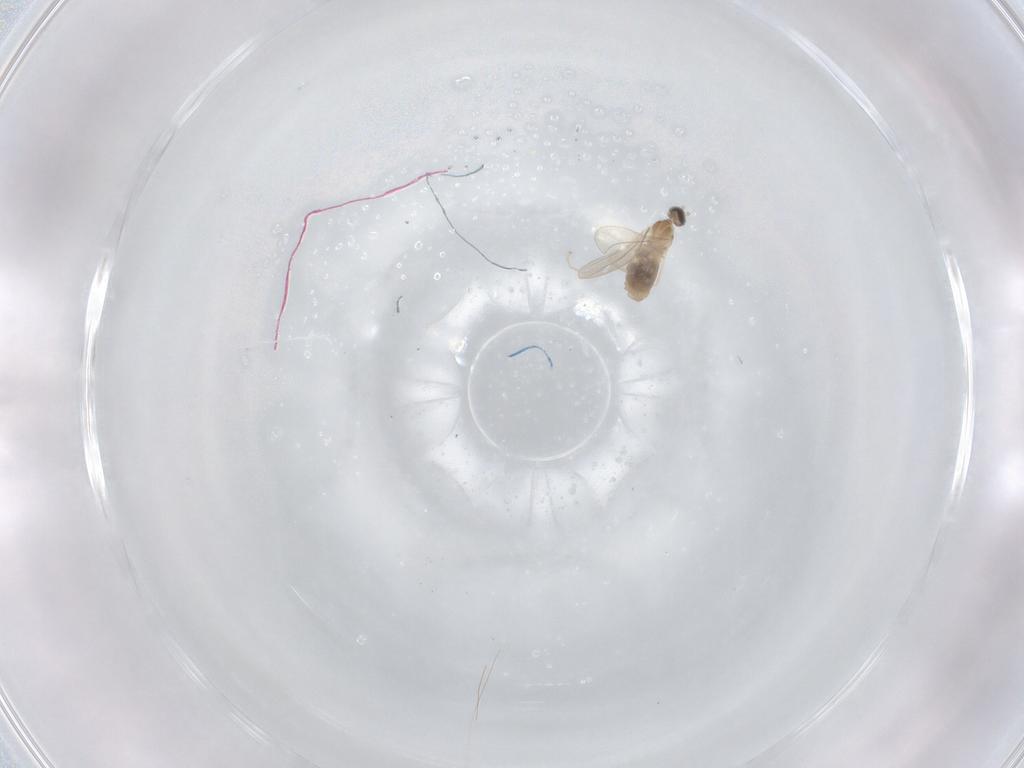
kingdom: Animalia
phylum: Arthropoda
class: Insecta
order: Diptera
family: Cecidomyiidae
